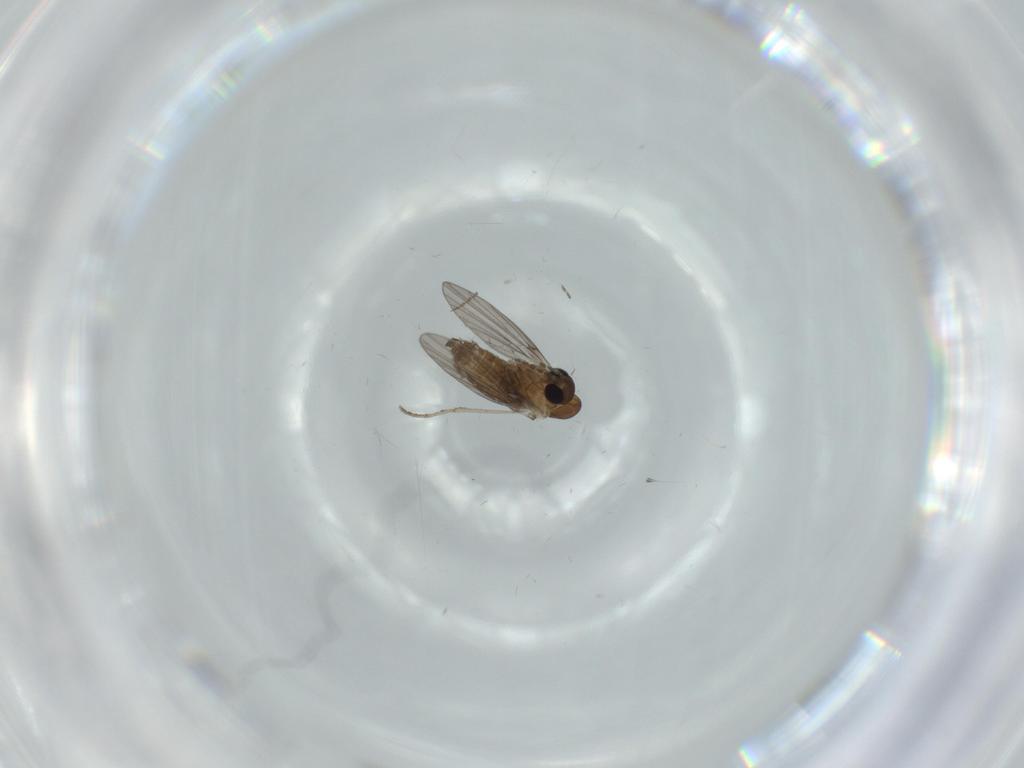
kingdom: Animalia
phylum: Arthropoda
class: Insecta
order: Diptera
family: Psychodidae
